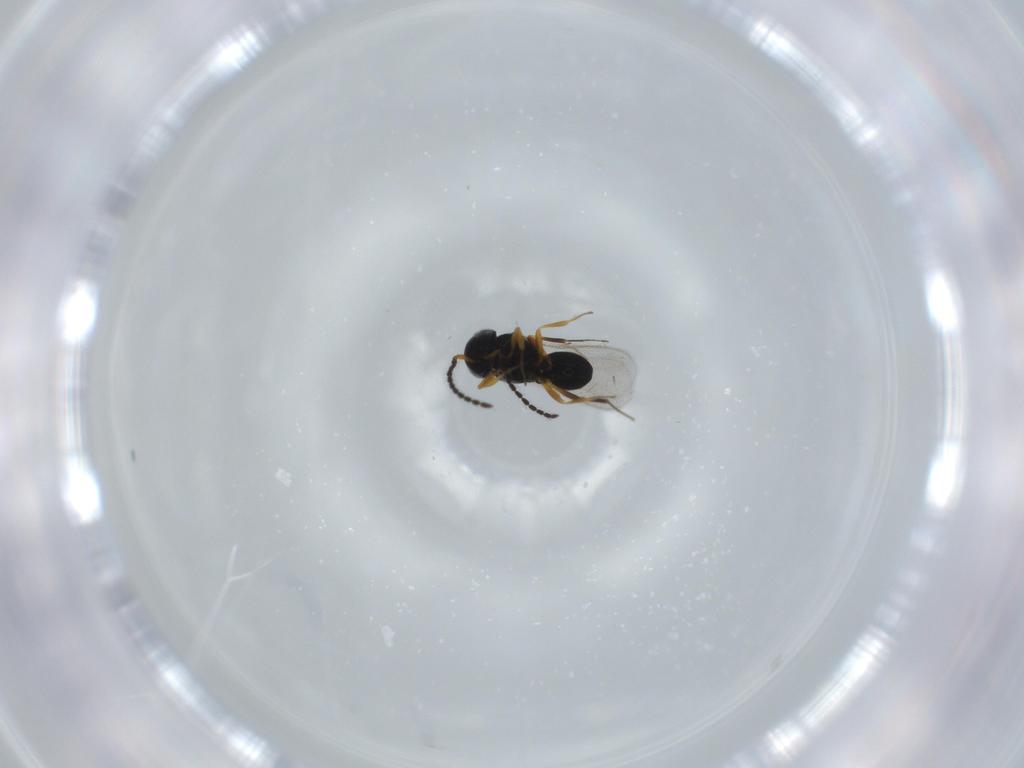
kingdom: Animalia
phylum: Arthropoda
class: Insecta
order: Hymenoptera
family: Scelionidae
